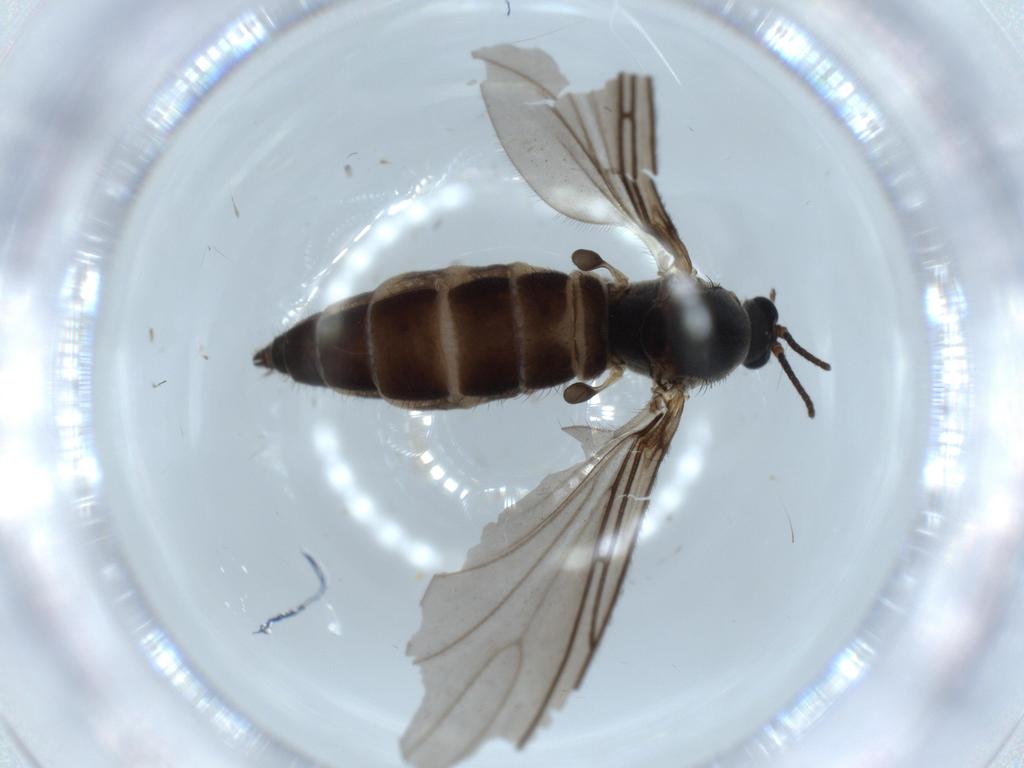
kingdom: Animalia
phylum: Arthropoda
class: Insecta
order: Diptera
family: Sciaridae
